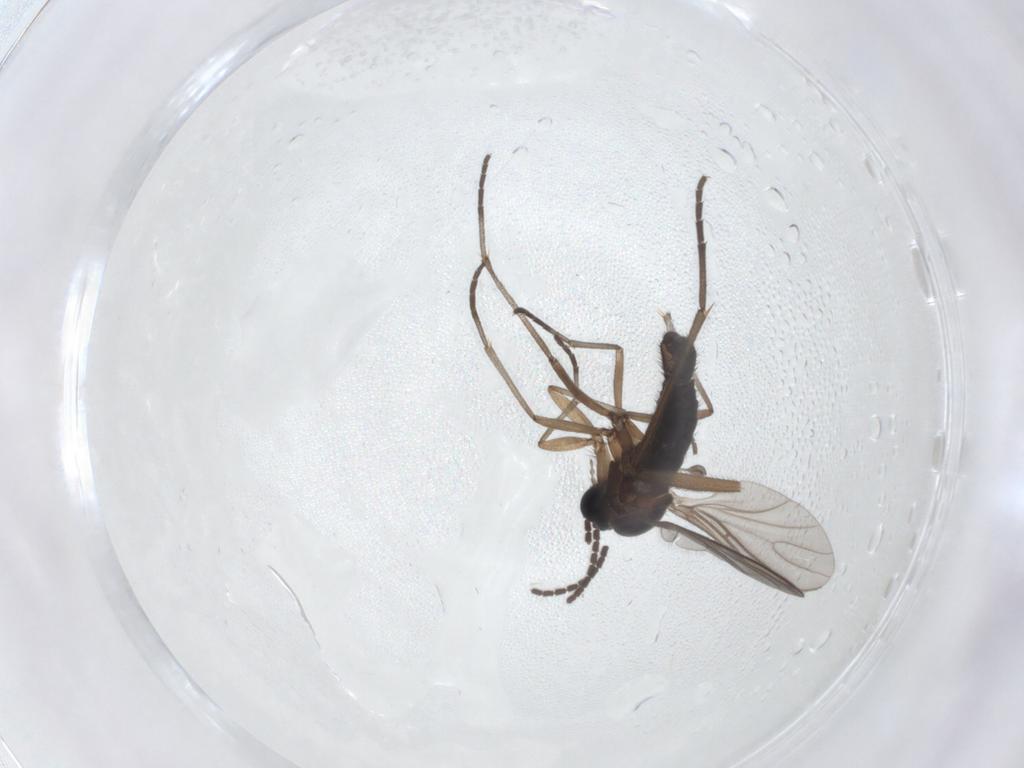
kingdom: Animalia
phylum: Arthropoda
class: Insecta
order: Diptera
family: Sciaridae
